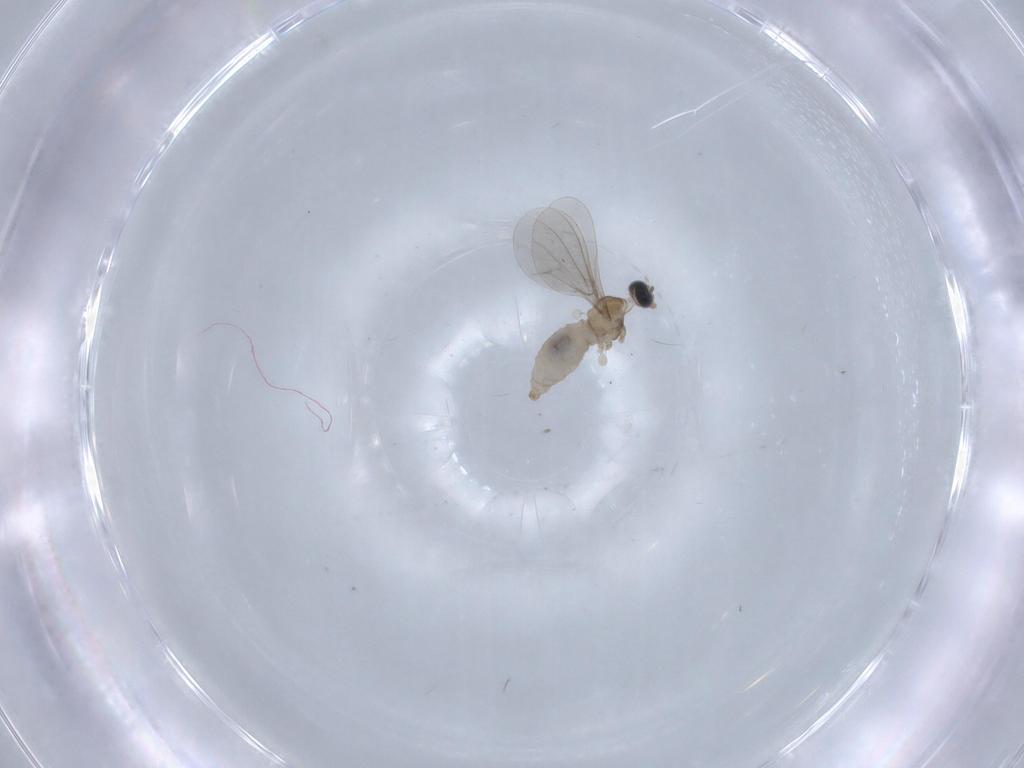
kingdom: Animalia
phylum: Arthropoda
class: Insecta
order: Diptera
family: Cecidomyiidae
